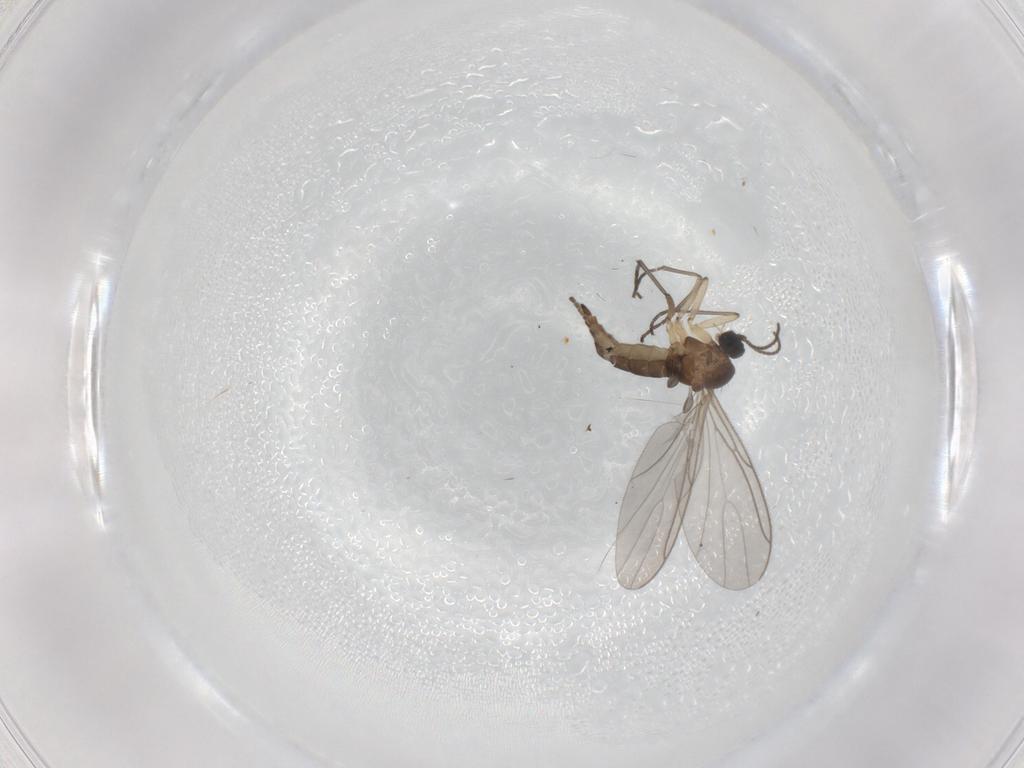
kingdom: Animalia
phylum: Arthropoda
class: Insecta
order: Diptera
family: Sciaridae
